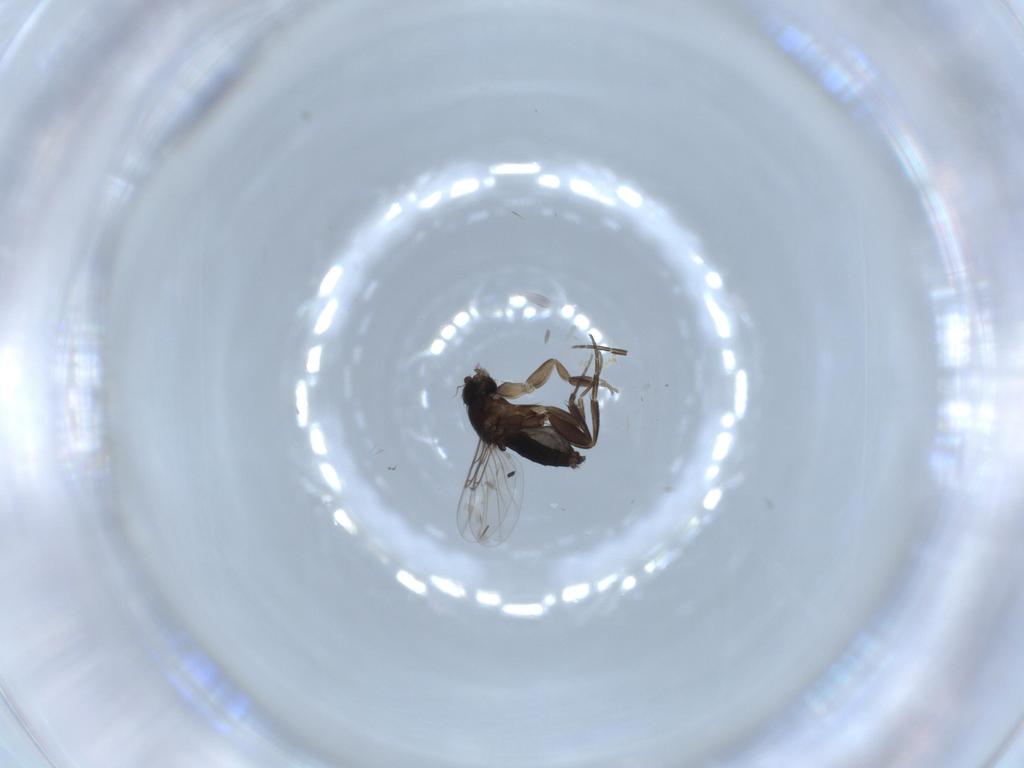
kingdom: Animalia
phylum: Arthropoda
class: Insecta
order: Diptera
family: Phoridae
